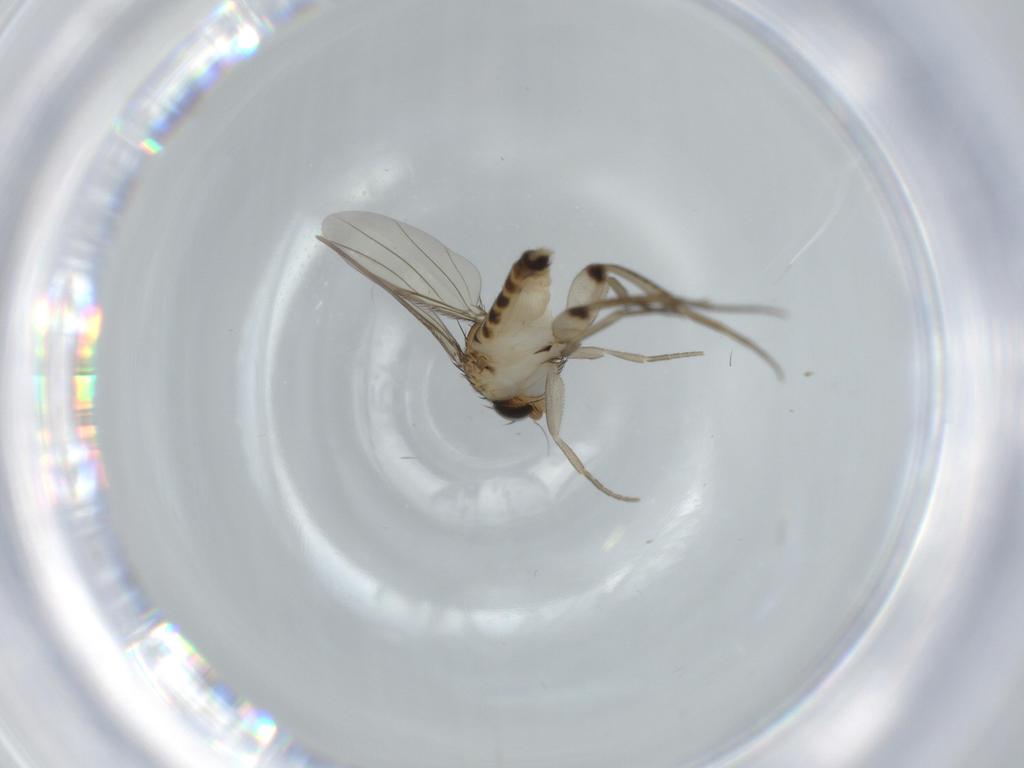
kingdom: Animalia
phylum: Arthropoda
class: Insecta
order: Diptera
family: Phoridae
